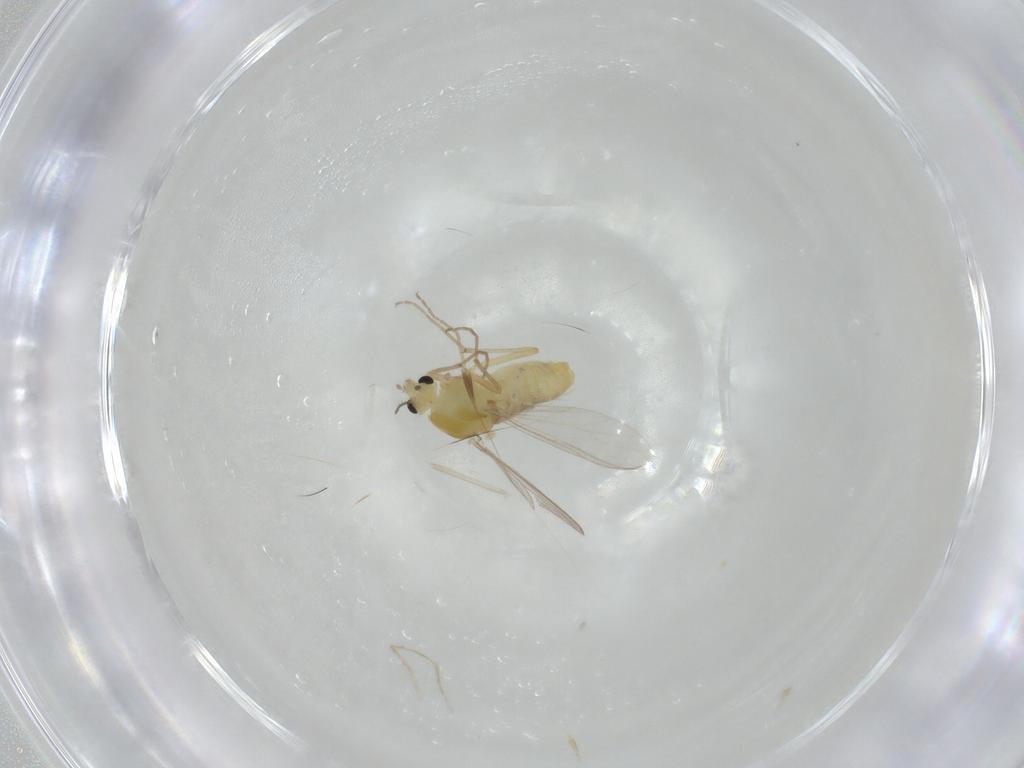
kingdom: Animalia
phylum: Arthropoda
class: Insecta
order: Diptera
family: Chironomidae
